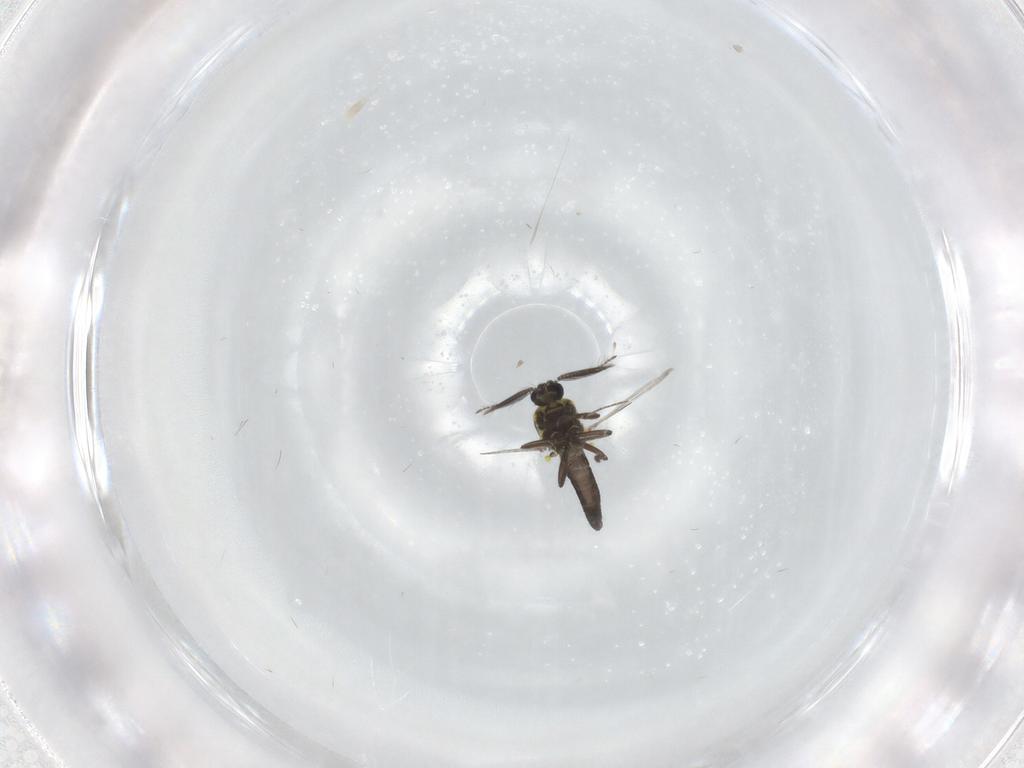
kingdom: Animalia
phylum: Arthropoda
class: Insecta
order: Diptera
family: Ceratopogonidae
